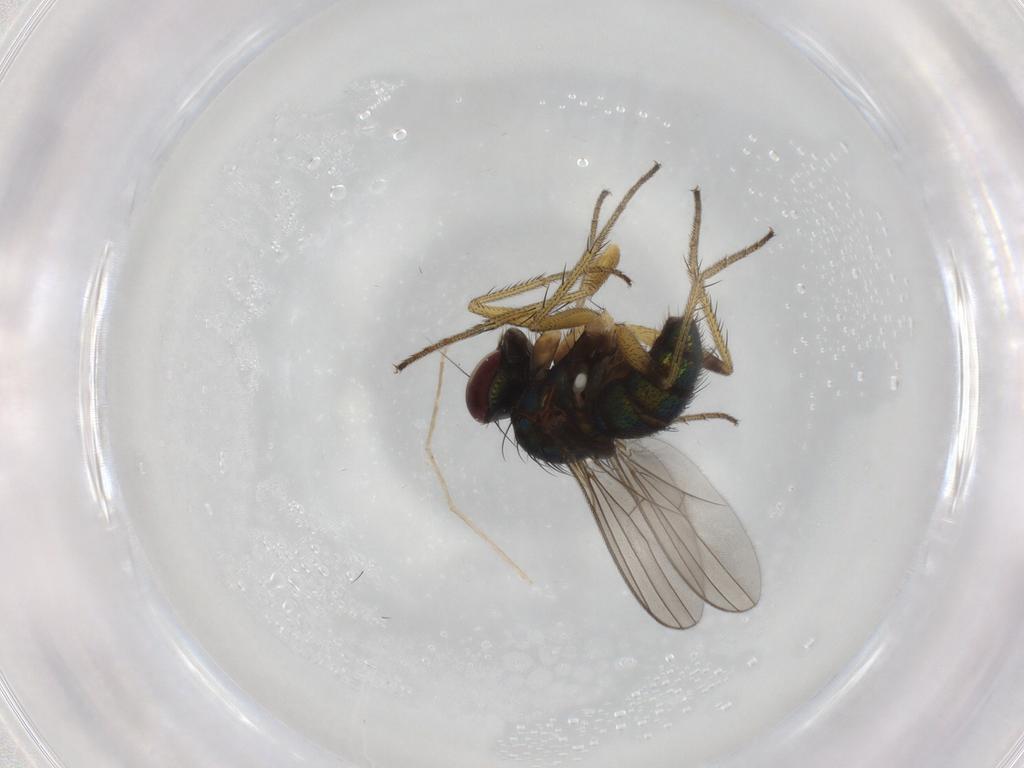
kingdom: Animalia
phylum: Arthropoda
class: Insecta
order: Diptera
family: Dolichopodidae
